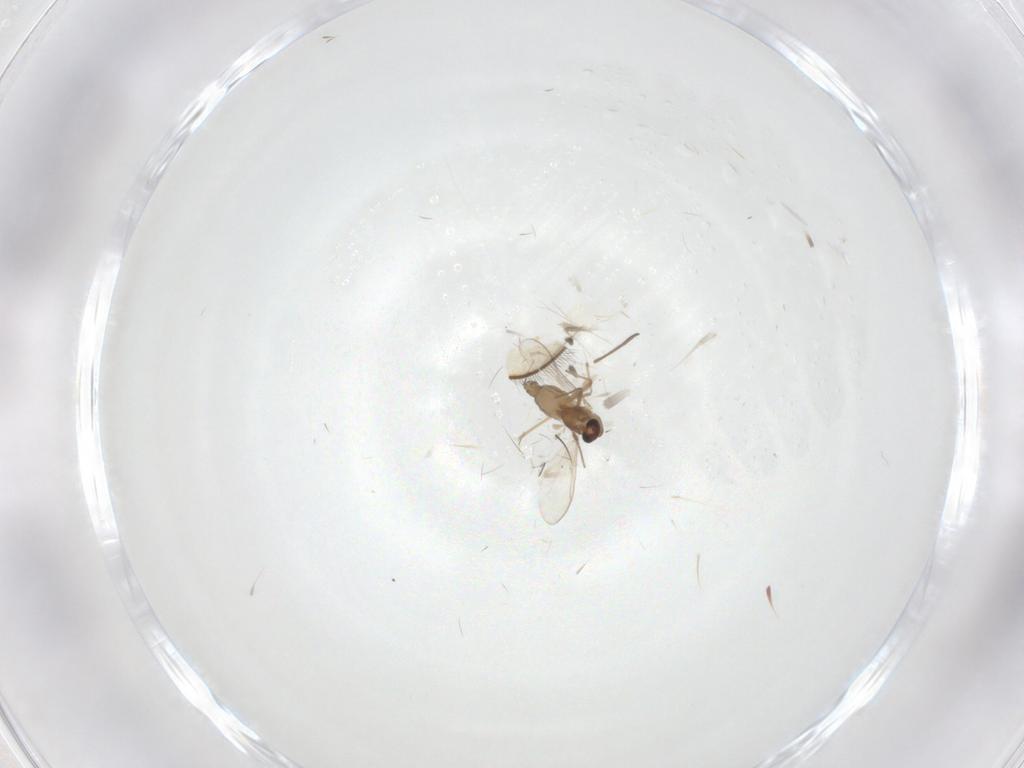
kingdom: Animalia
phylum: Arthropoda
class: Insecta
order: Diptera
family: Chironomidae
